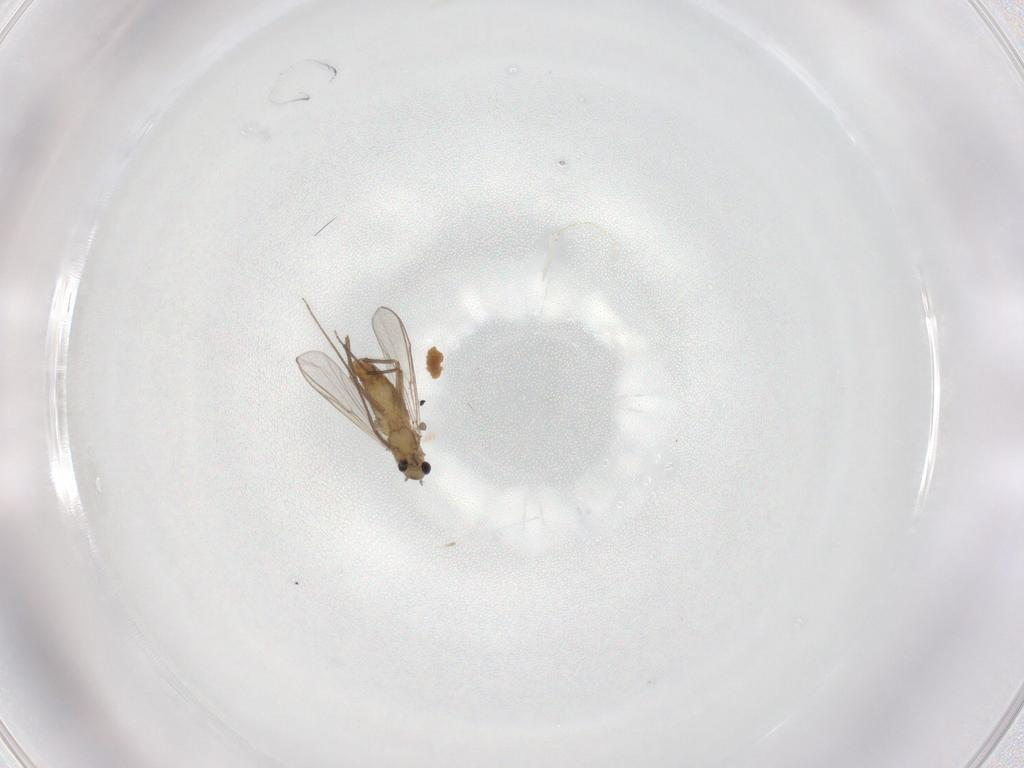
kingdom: Animalia
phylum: Arthropoda
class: Insecta
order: Diptera
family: Chironomidae
